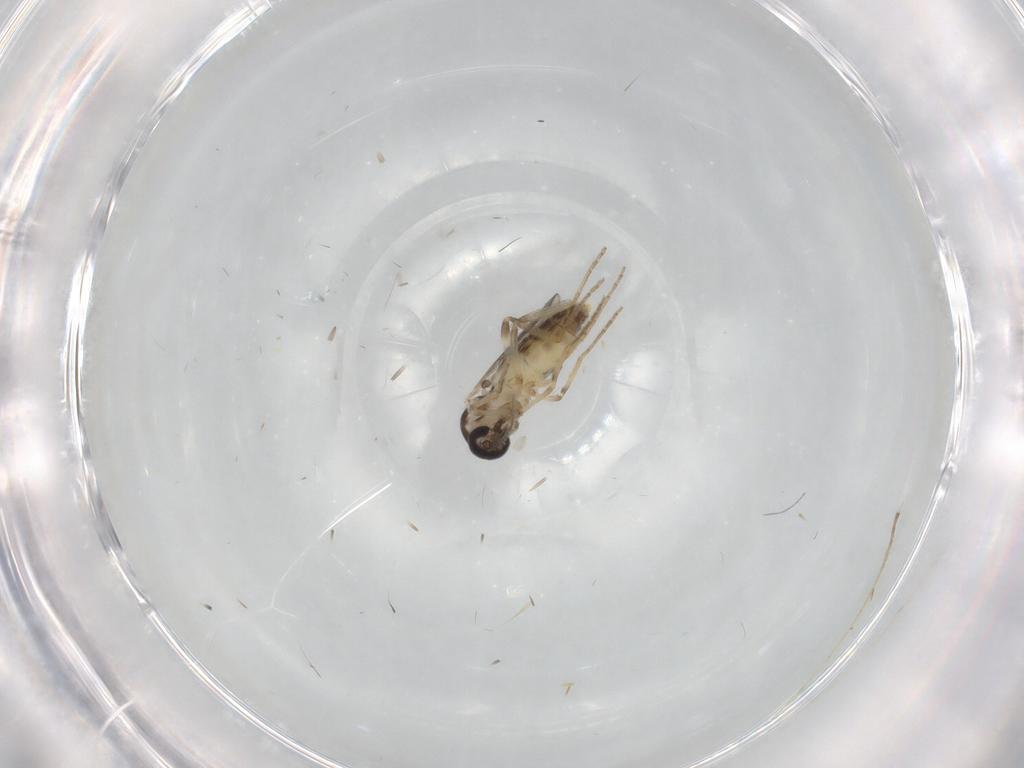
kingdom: Animalia
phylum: Arthropoda
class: Insecta
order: Diptera
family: Ceratopogonidae
